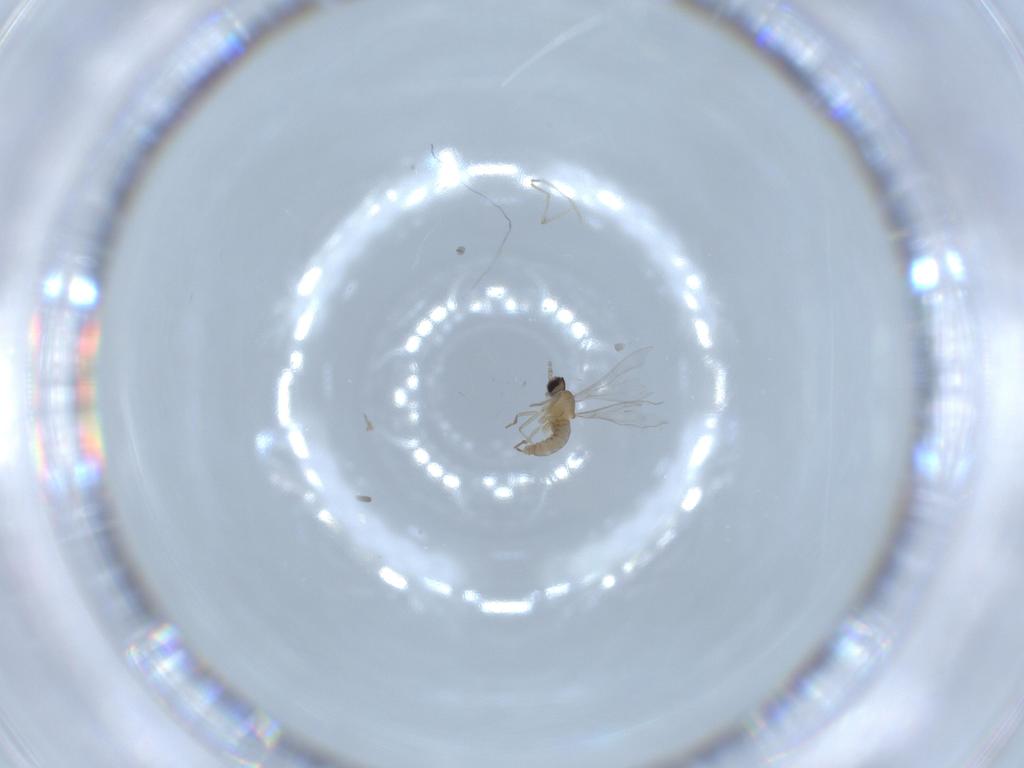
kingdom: Animalia
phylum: Arthropoda
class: Insecta
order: Diptera
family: Cecidomyiidae
